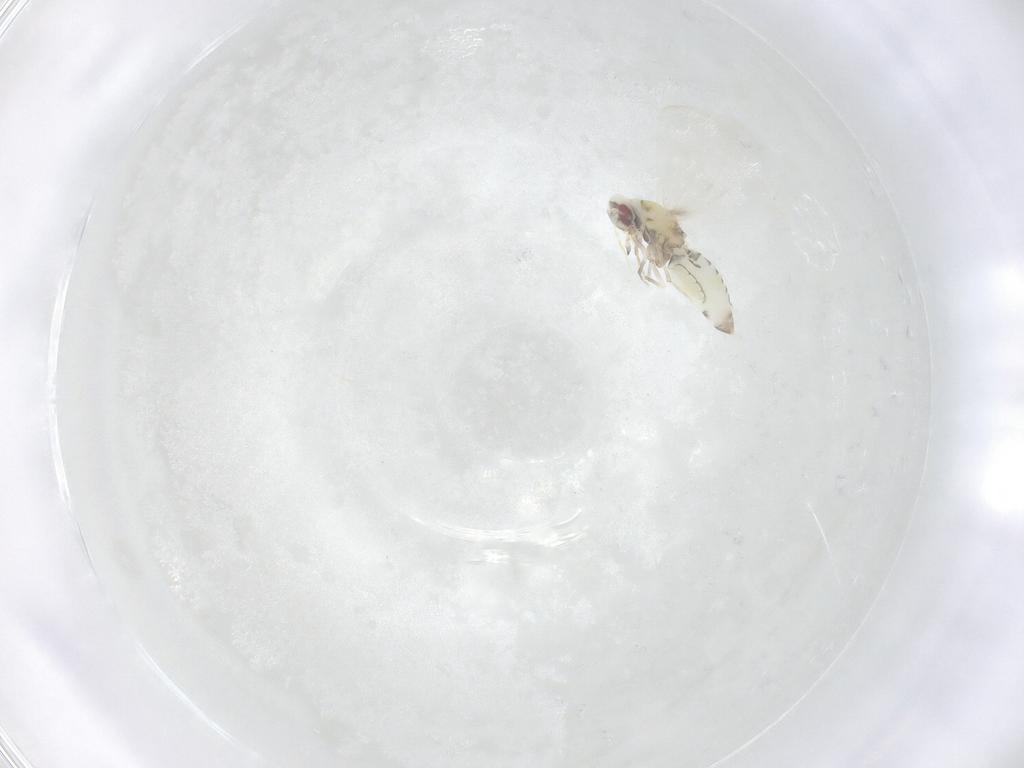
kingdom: Animalia
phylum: Arthropoda
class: Insecta
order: Hemiptera
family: Aleyrodidae
